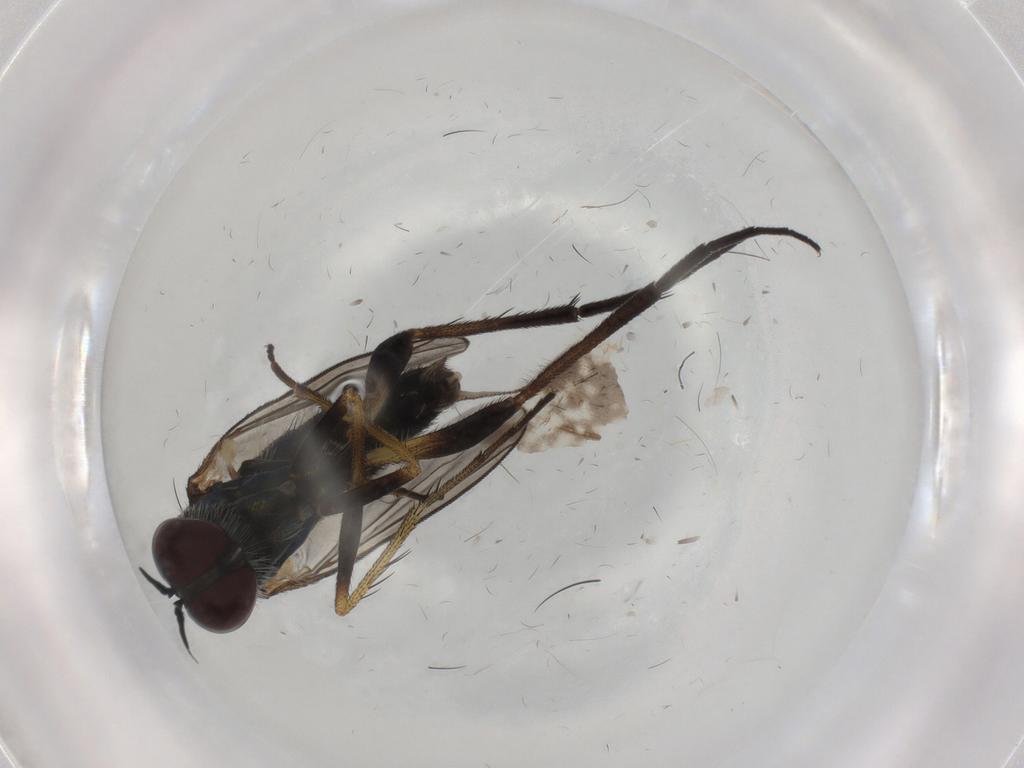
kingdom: Animalia
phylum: Arthropoda
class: Insecta
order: Diptera
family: Dolichopodidae
